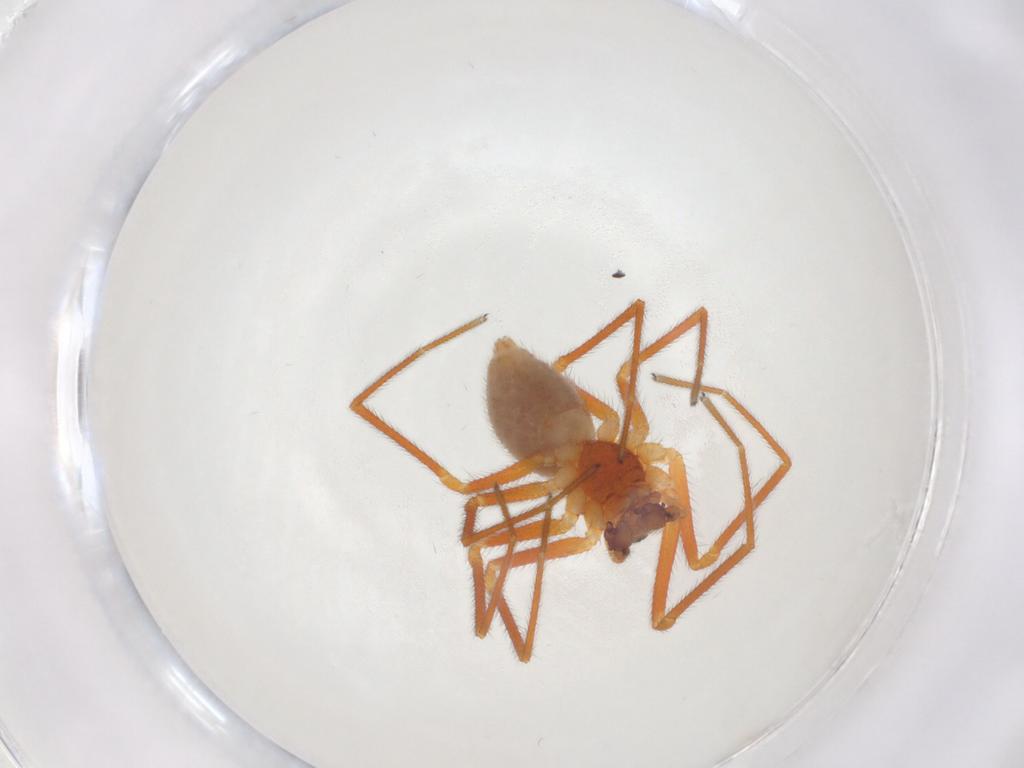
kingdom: Animalia
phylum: Arthropoda
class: Arachnida
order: Araneae
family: Linyphiidae
